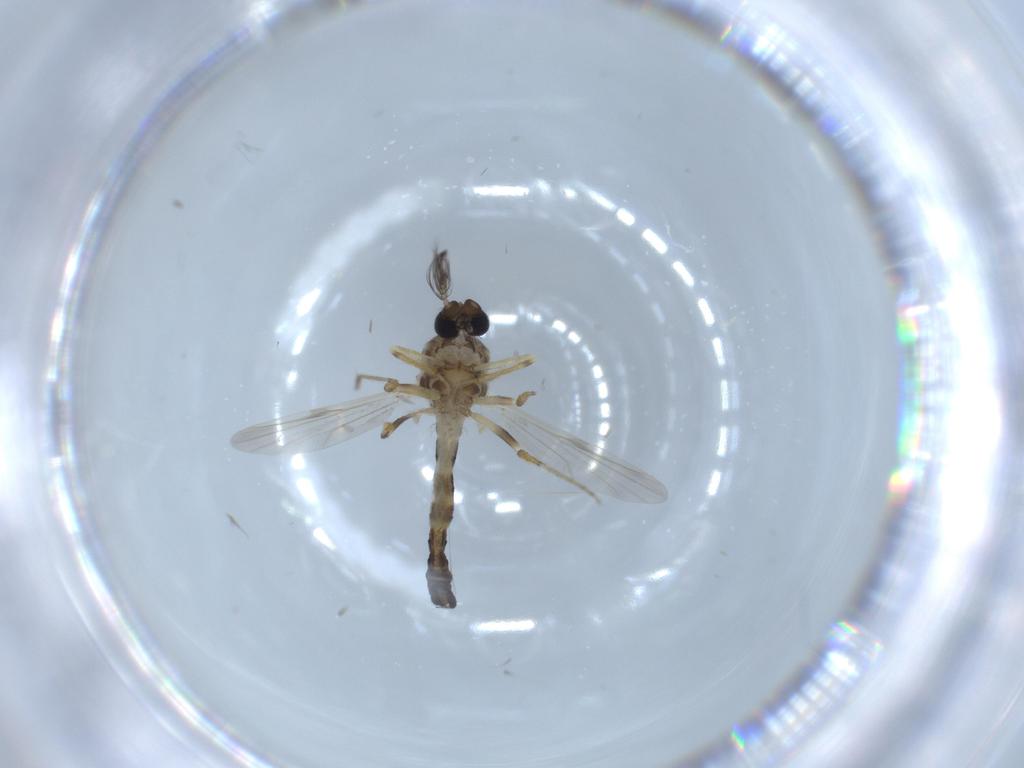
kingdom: Animalia
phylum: Arthropoda
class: Insecta
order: Diptera
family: Ceratopogonidae
